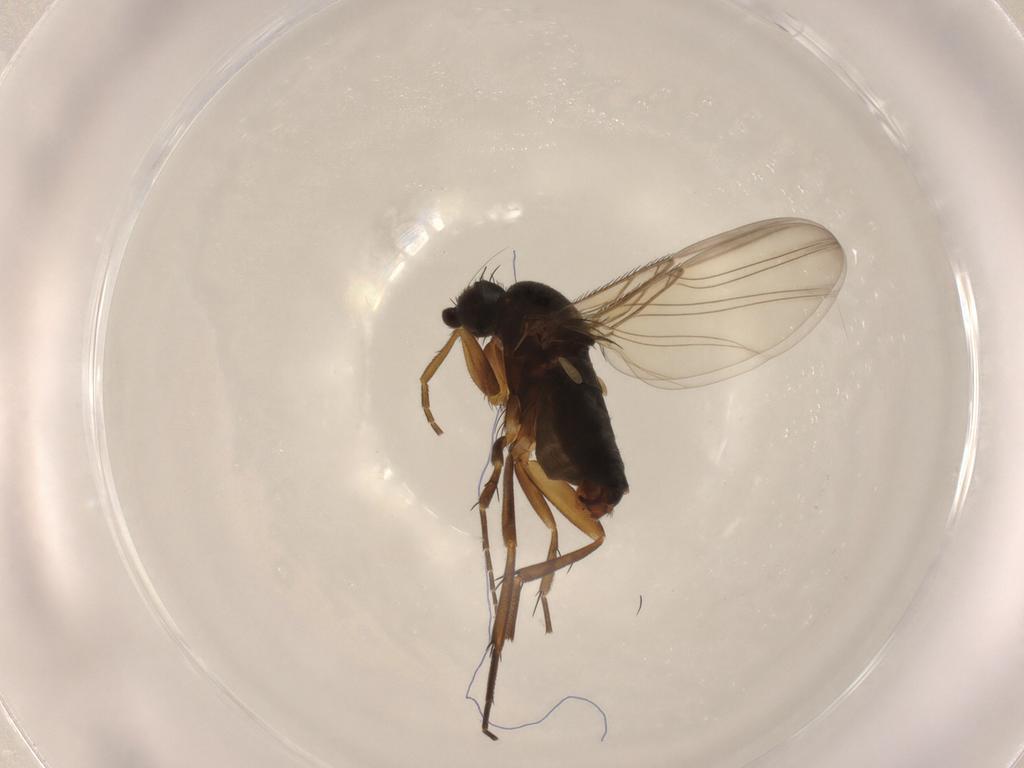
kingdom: Animalia
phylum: Arthropoda
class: Insecta
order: Diptera
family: Phoridae
